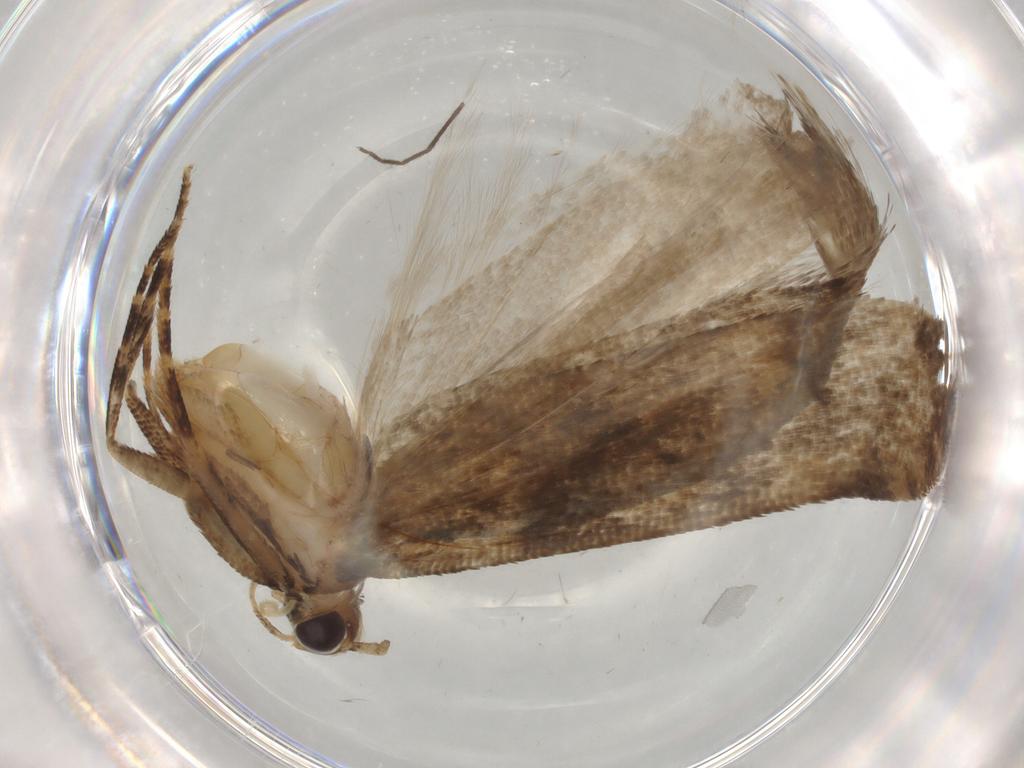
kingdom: Animalia
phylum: Arthropoda
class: Insecta
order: Lepidoptera
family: Gelechiidae
